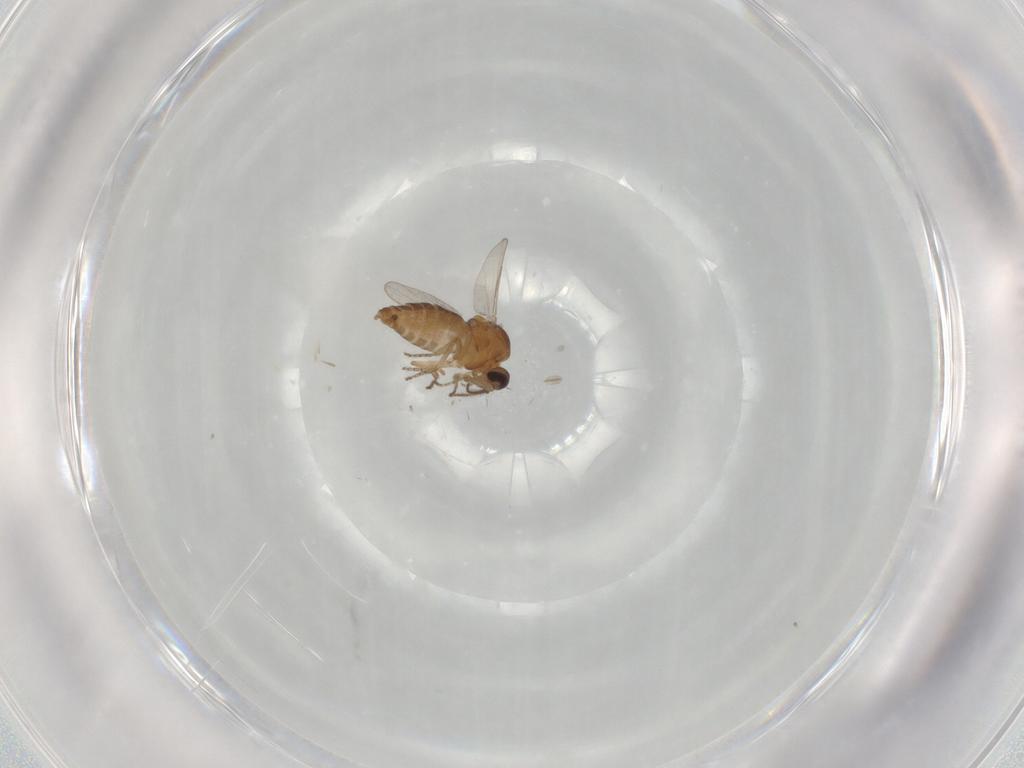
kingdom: Animalia
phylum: Arthropoda
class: Insecta
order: Diptera
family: Ceratopogonidae
